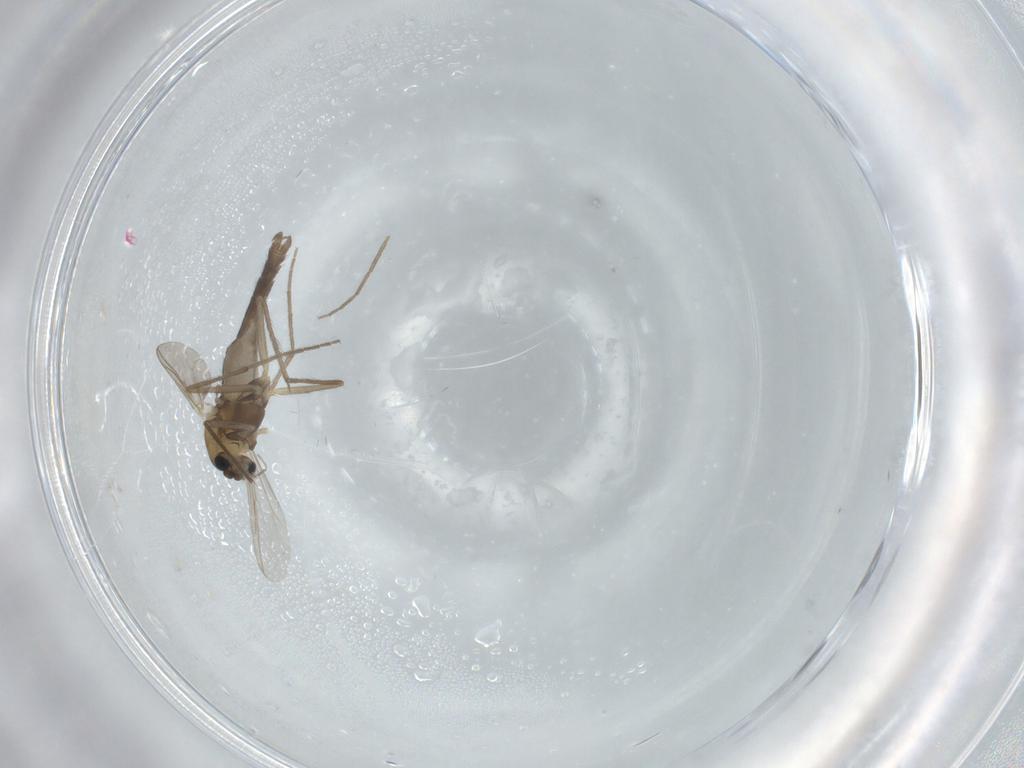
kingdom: Animalia
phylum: Arthropoda
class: Insecta
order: Diptera
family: Chironomidae
